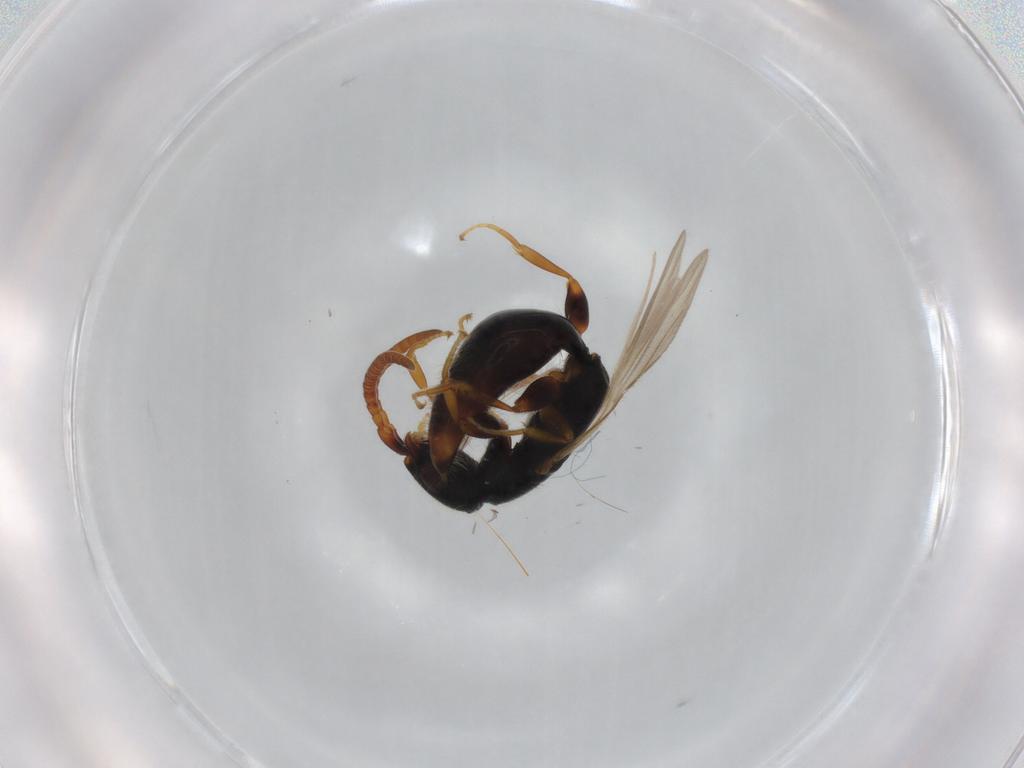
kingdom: Animalia
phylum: Arthropoda
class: Insecta
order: Hymenoptera
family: Bethylidae
